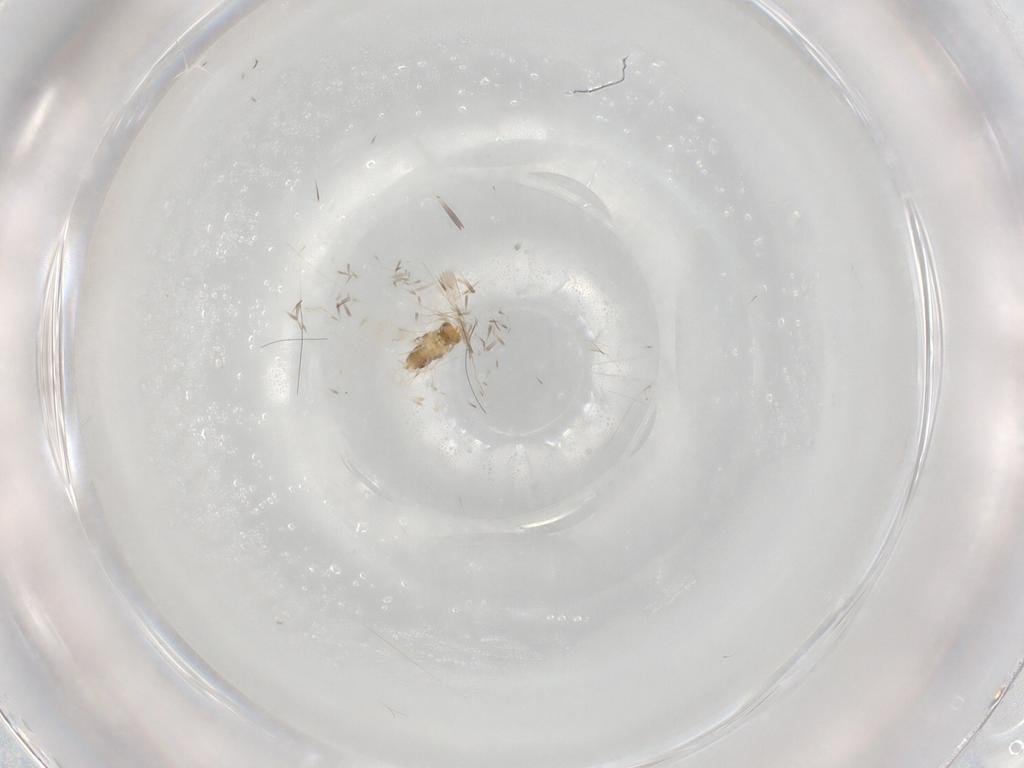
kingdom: Animalia
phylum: Arthropoda
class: Insecta
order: Hymenoptera
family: Aphelinidae
